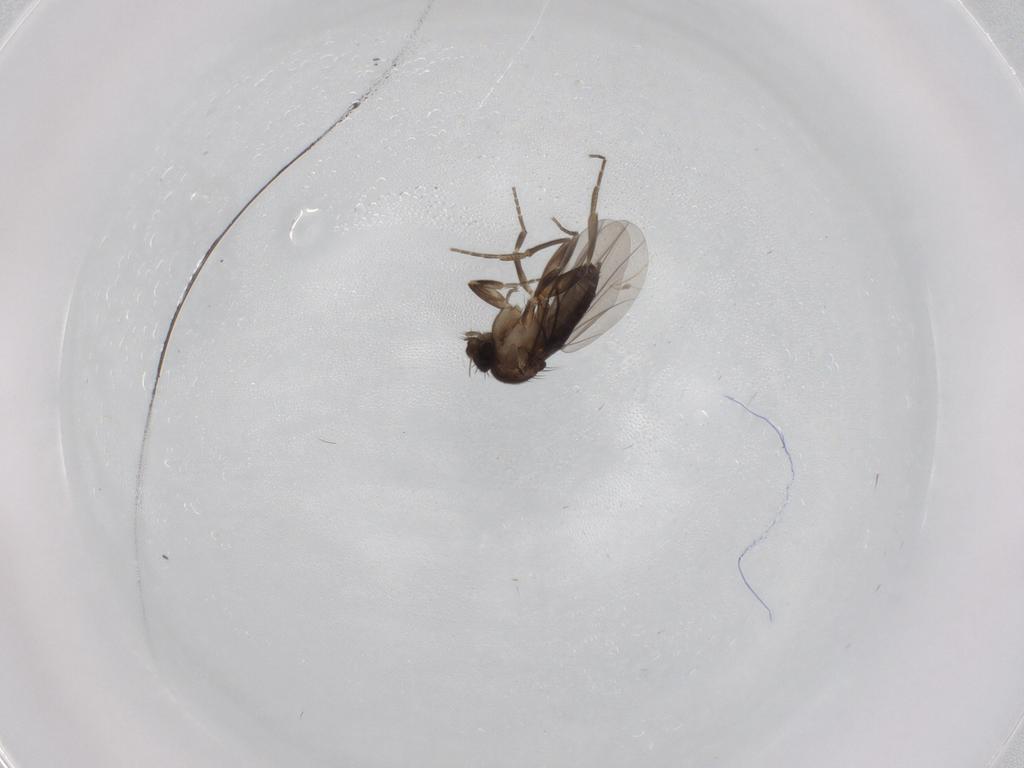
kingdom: Animalia
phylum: Arthropoda
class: Insecta
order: Diptera
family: Phoridae
